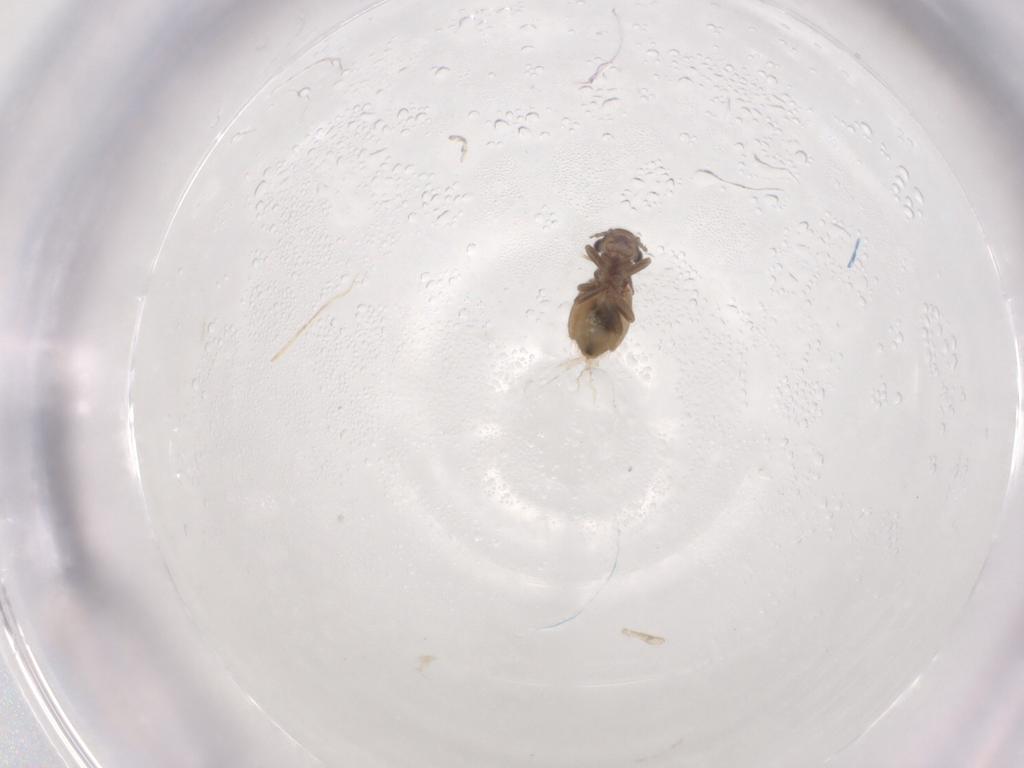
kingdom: Animalia
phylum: Arthropoda
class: Insecta
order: Psocodea
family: Trogiidae
